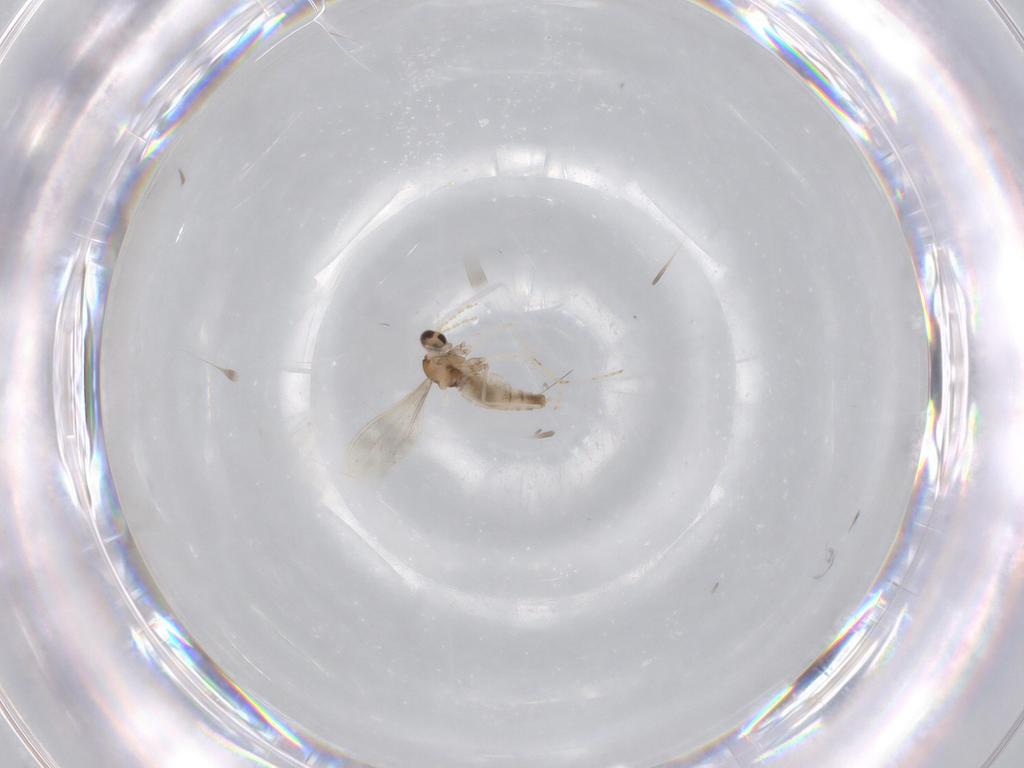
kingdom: Animalia
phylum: Arthropoda
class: Insecta
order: Diptera
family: Cecidomyiidae
